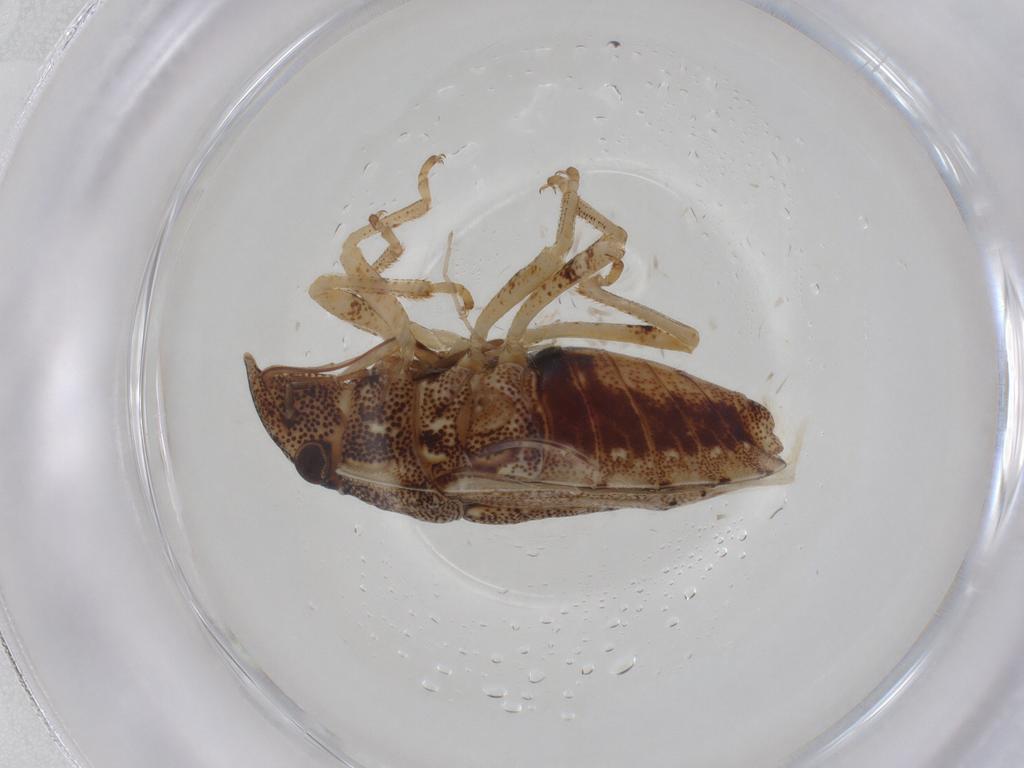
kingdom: Animalia
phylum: Arthropoda
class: Insecta
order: Hemiptera
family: Pentatomidae
